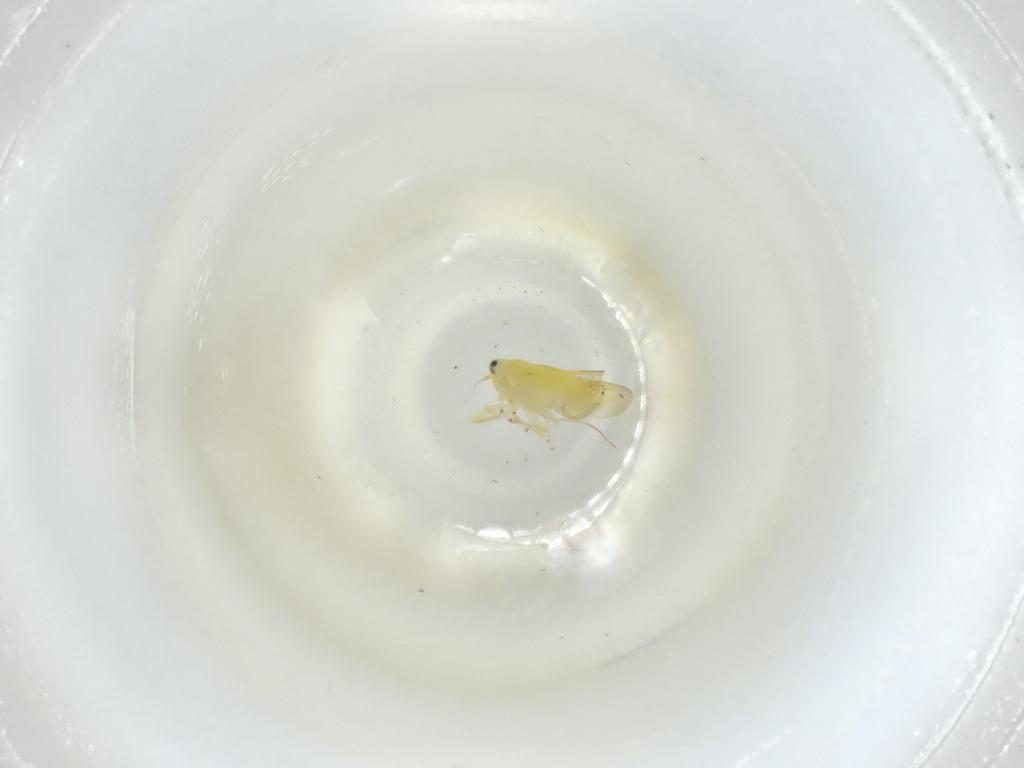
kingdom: Animalia
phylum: Arthropoda
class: Insecta
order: Hemiptera
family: Cicadellidae
